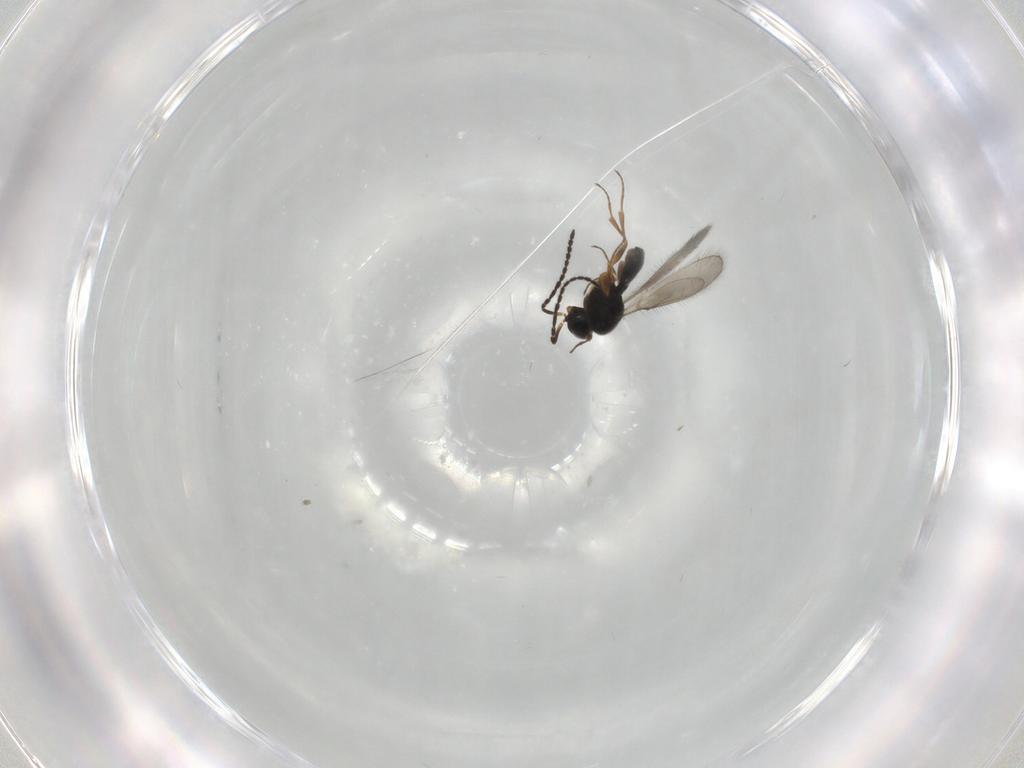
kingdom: Animalia
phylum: Arthropoda
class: Insecta
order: Hymenoptera
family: Scelionidae
